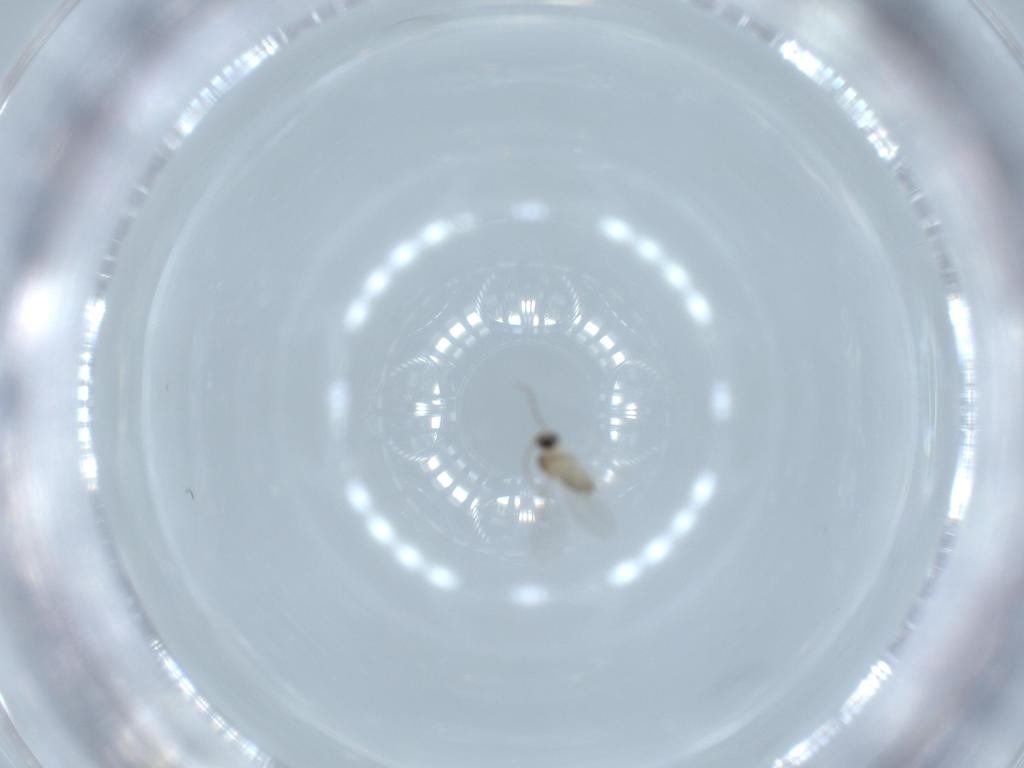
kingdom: Animalia
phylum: Arthropoda
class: Insecta
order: Diptera
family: Cecidomyiidae
